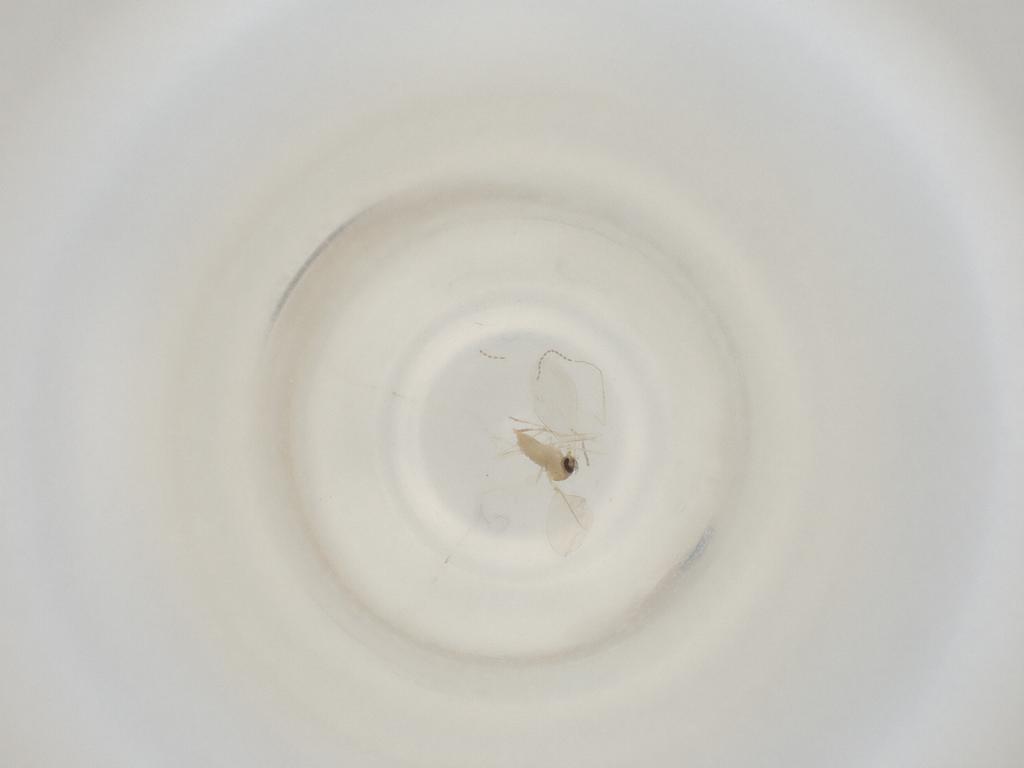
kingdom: Animalia
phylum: Arthropoda
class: Insecta
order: Diptera
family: Cecidomyiidae
